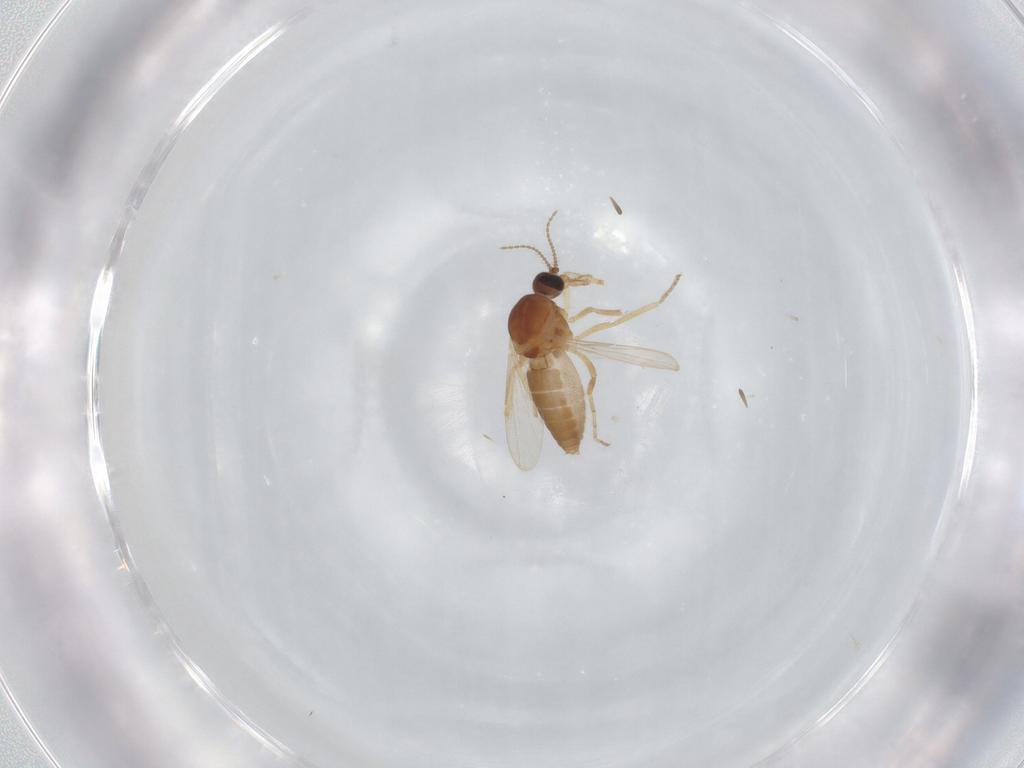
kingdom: Animalia
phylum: Arthropoda
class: Insecta
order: Diptera
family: Ceratopogonidae
